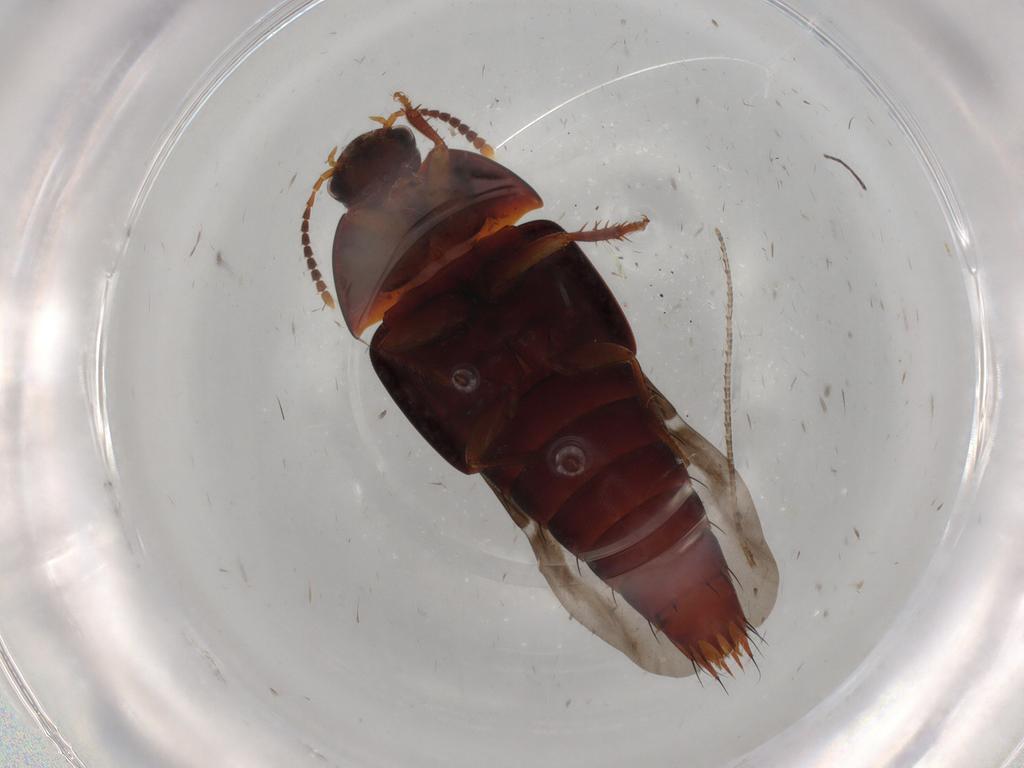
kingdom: Animalia
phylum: Arthropoda
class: Insecta
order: Coleoptera
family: Staphylinidae
